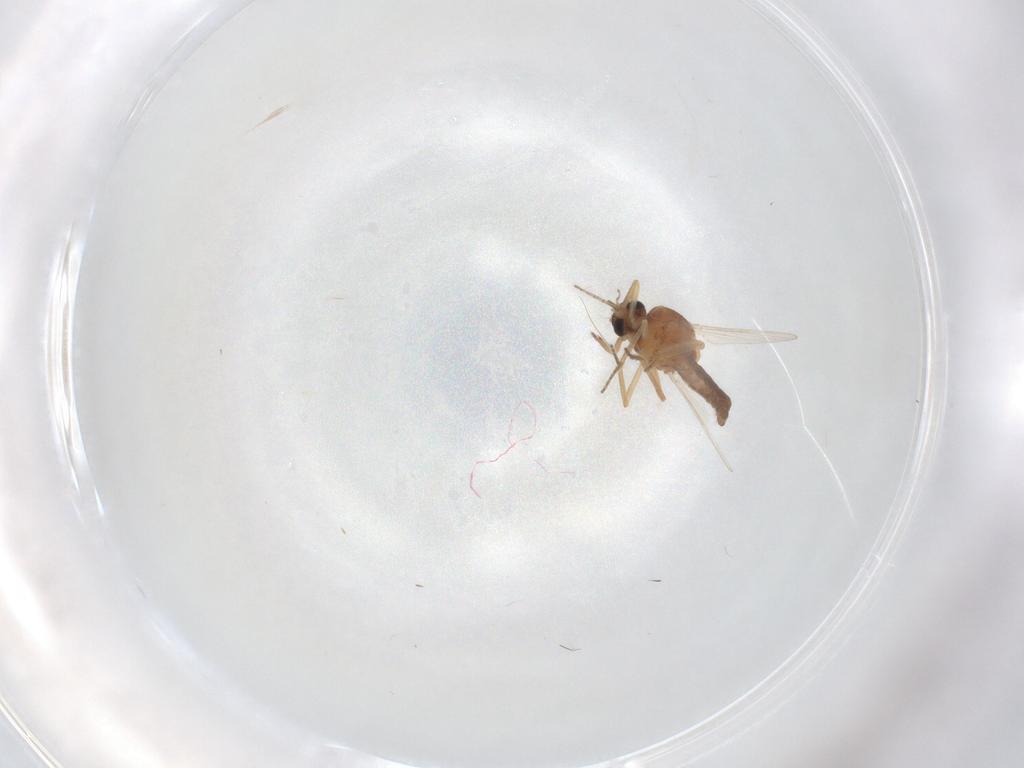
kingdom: Animalia
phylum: Arthropoda
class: Insecta
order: Diptera
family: Ceratopogonidae
